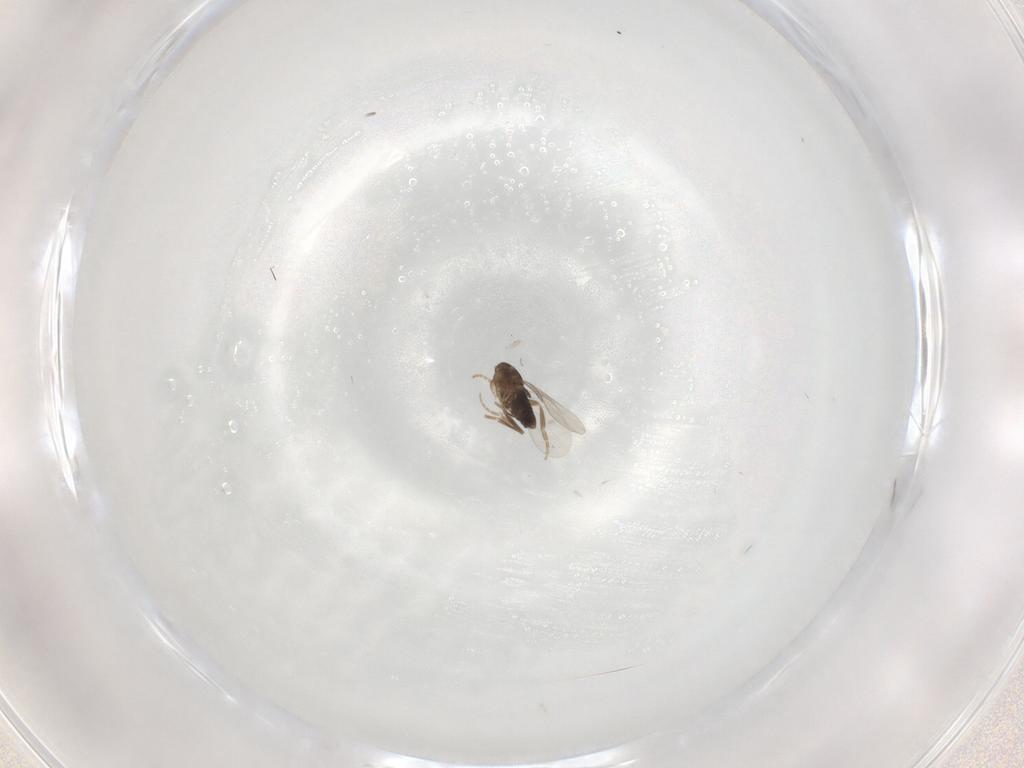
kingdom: Animalia
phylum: Arthropoda
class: Insecta
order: Diptera
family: Phoridae
